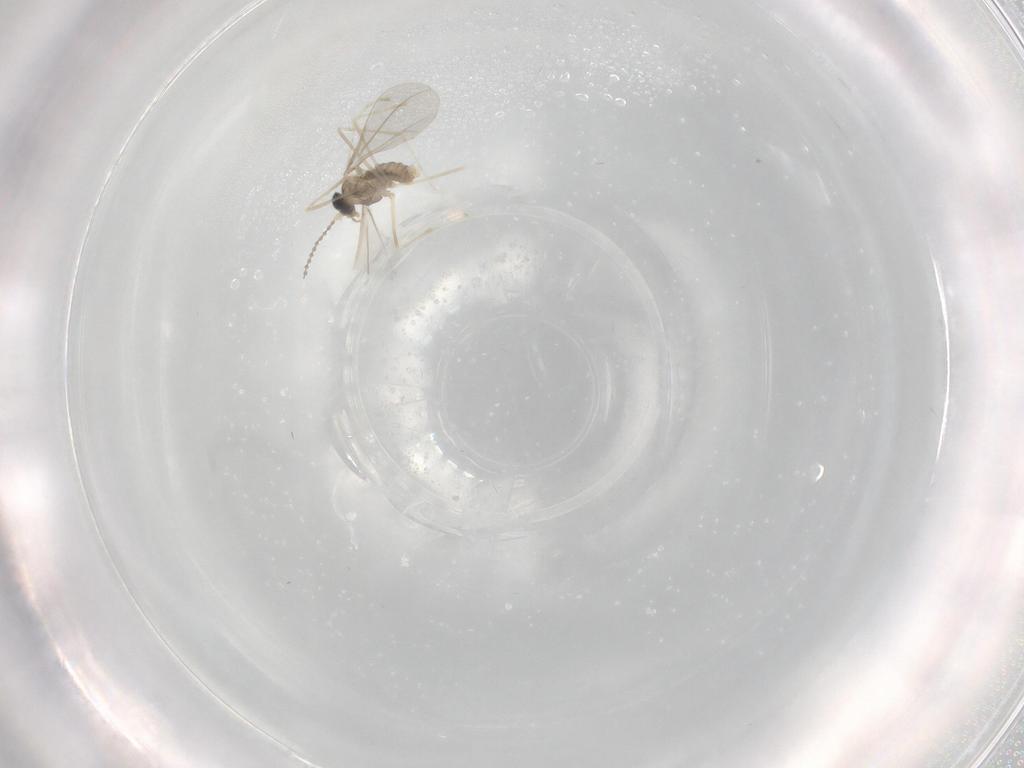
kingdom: Animalia
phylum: Arthropoda
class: Insecta
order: Diptera
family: Cecidomyiidae
